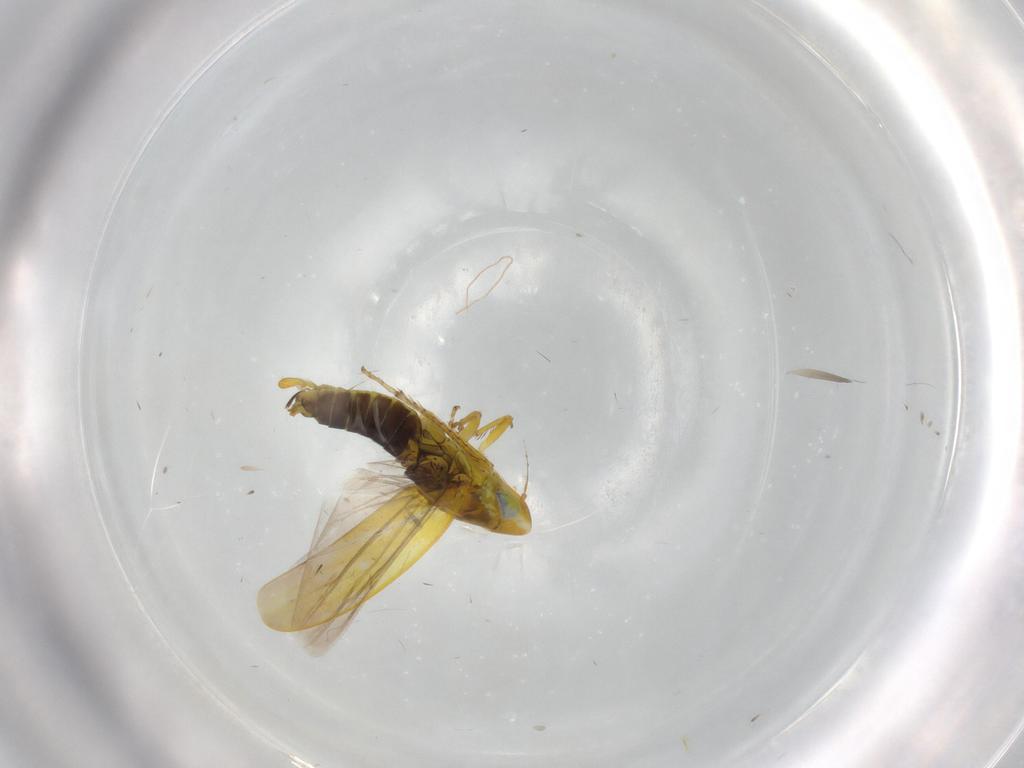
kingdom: Animalia
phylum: Arthropoda
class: Insecta
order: Hemiptera
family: Cicadellidae
